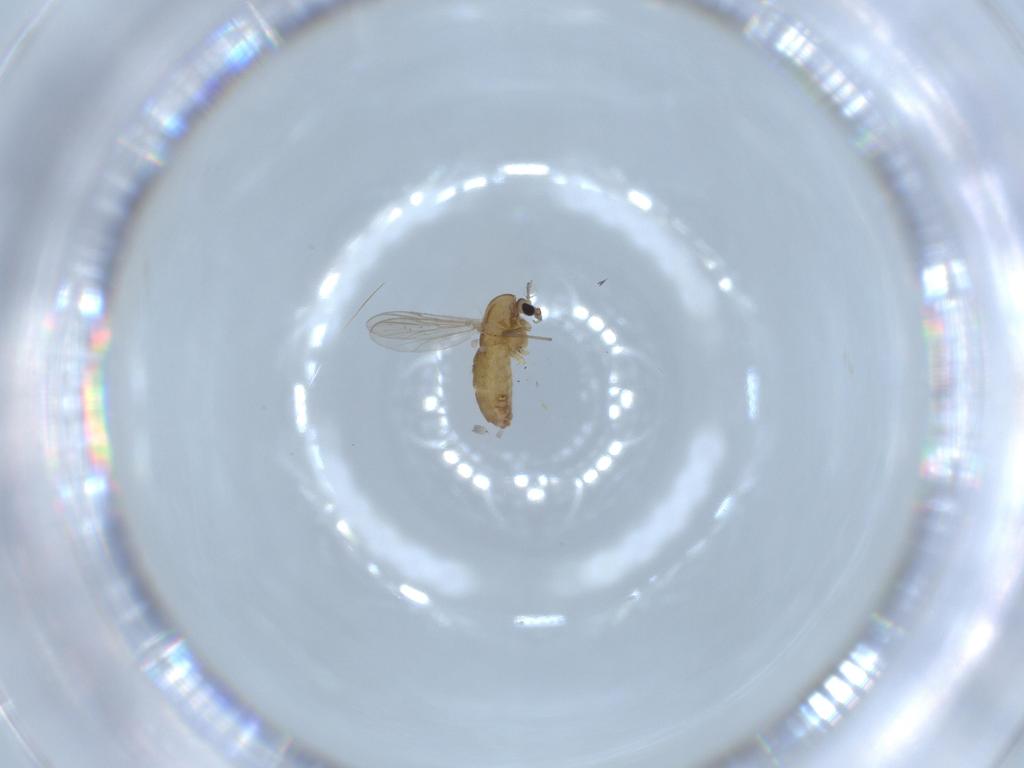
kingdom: Animalia
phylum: Arthropoda
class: Insecta
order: Diptera
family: Chironomidae
